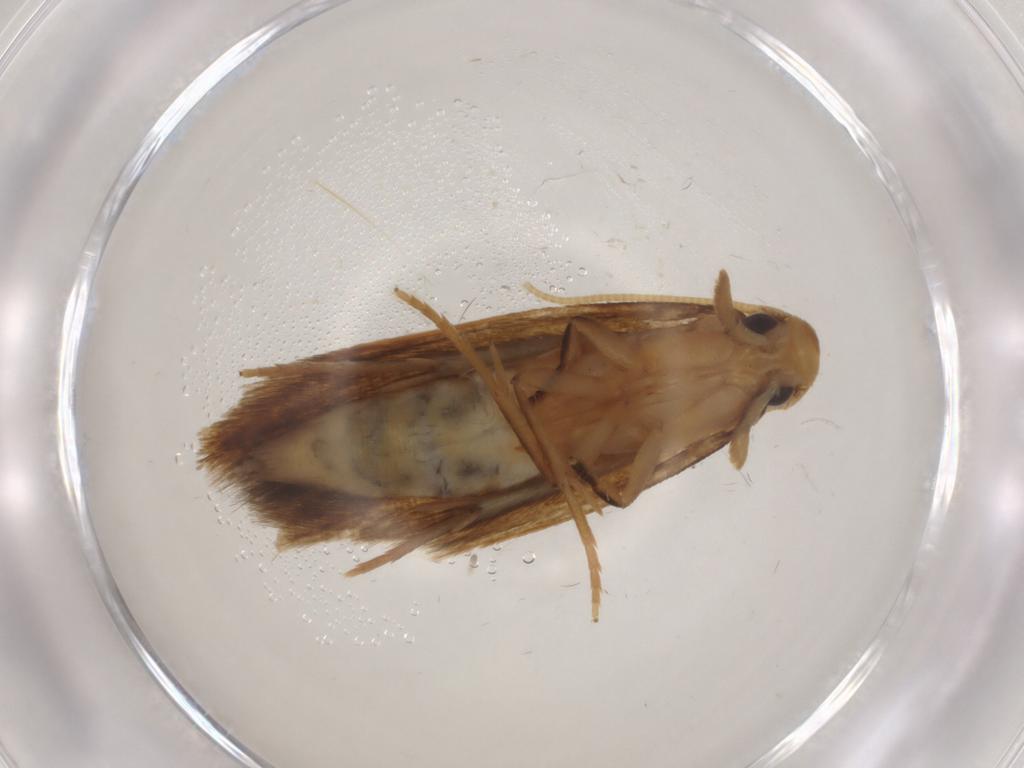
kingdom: Animalia
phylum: Arthropoda
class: Insecta
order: Lepidoptera
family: Tineidae
